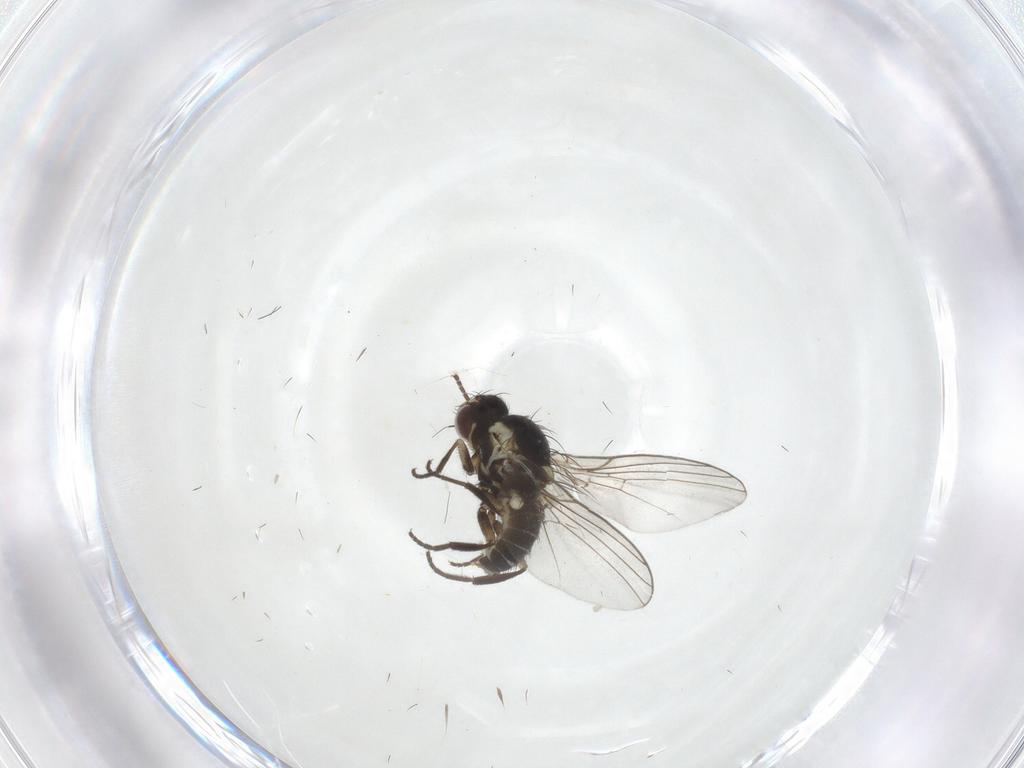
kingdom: Animalia
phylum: Arthropoda
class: Insecta
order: Diptera
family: Agromyzidae
